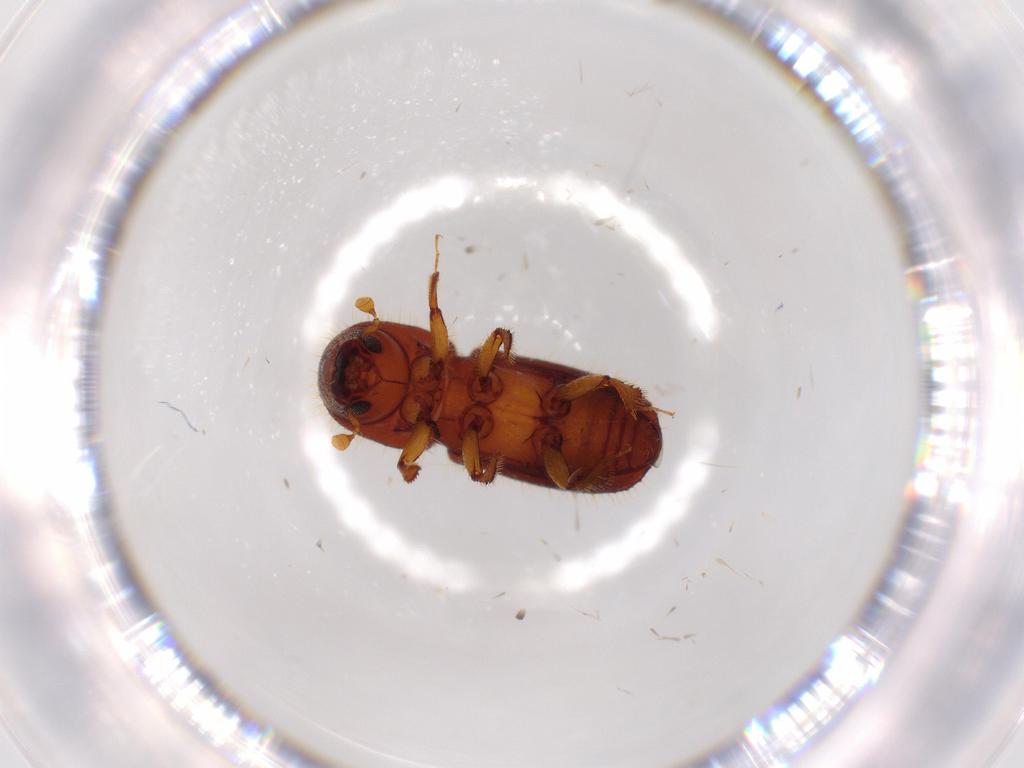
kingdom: Animalia
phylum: Arthropoda
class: Insecta
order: Coleoptera
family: Curculionidae
